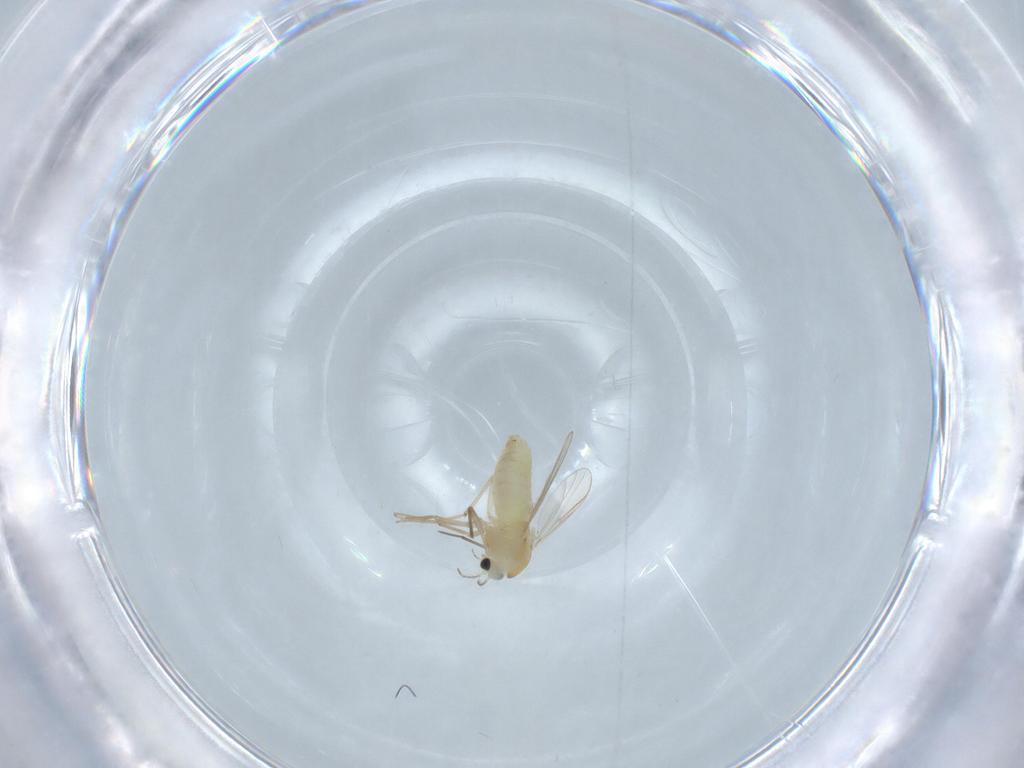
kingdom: Animalia
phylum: Arthropoda
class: Insecta
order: Diptera
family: Chironomidae
